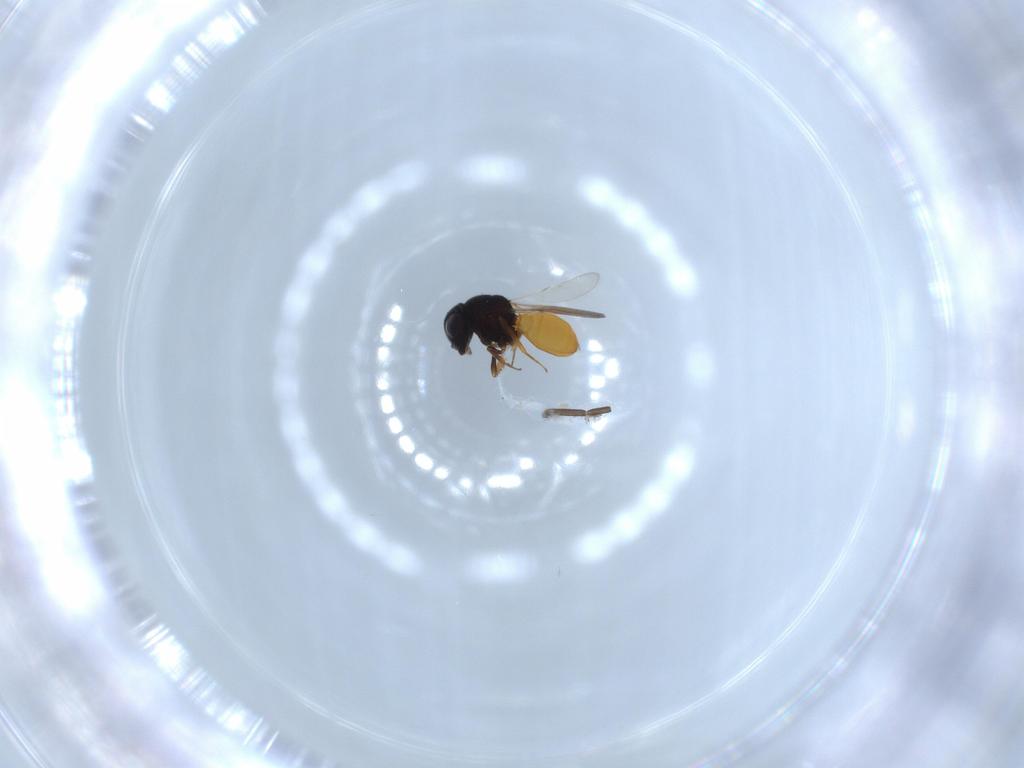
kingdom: Animalia
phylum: Arthropoda
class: Insecta
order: Hymenoptera
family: Scelionidae
